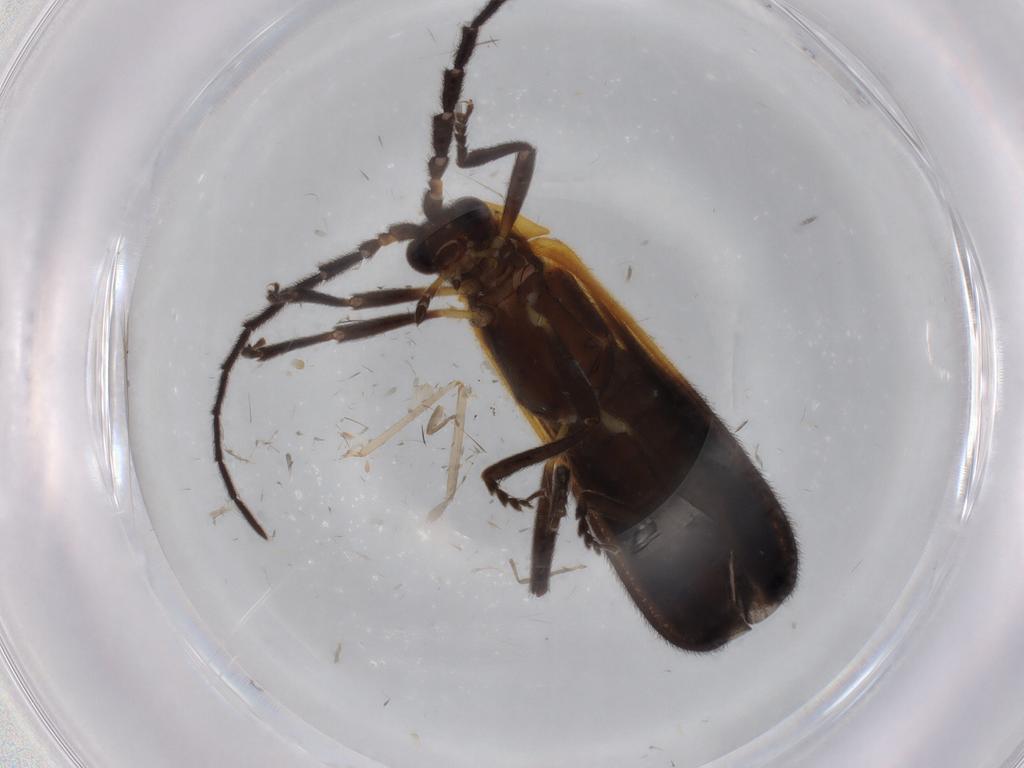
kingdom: Animalia
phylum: Arthropoda
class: Insecta
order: Coleoptera
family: Lycidae
